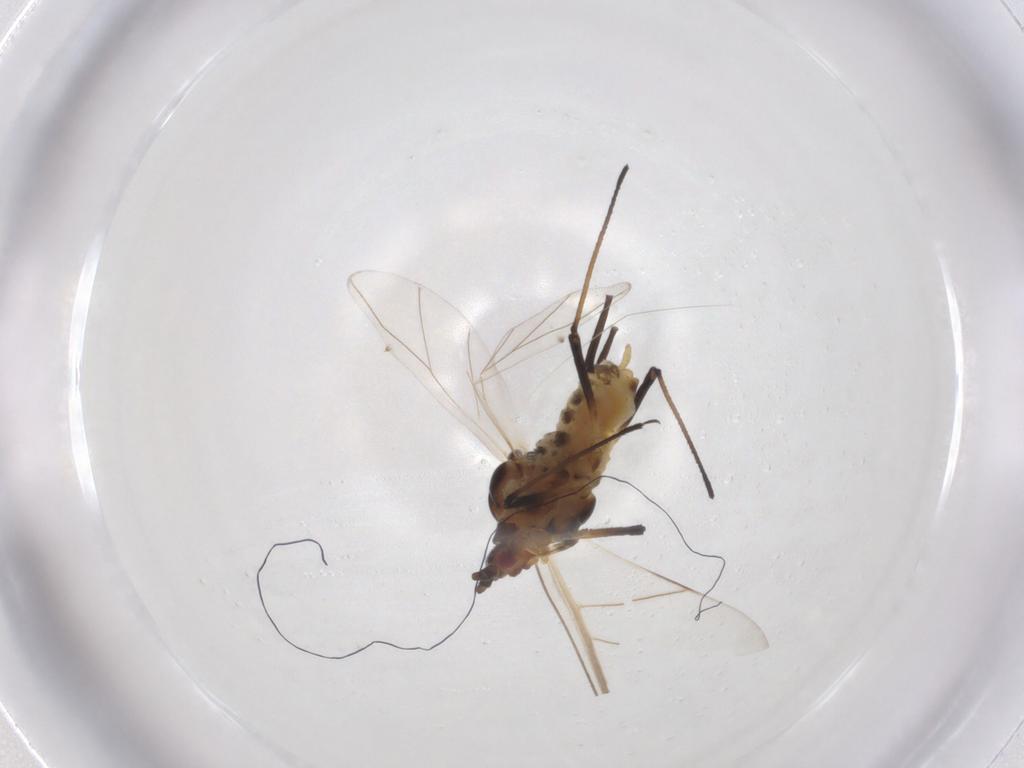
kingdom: Animalia
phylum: Arthropoda
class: Insecta
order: Hemiptera
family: Aphididae
